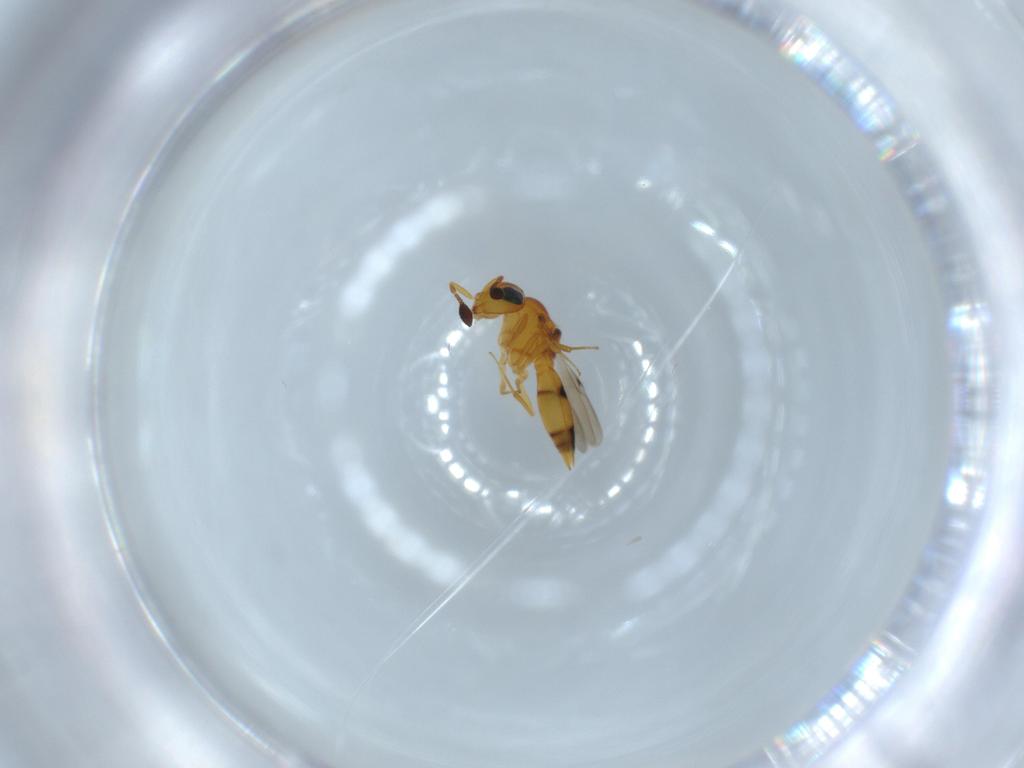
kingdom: Animalia
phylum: Arthropoda
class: Insecta
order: Hymenoptera
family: Scelionidae
